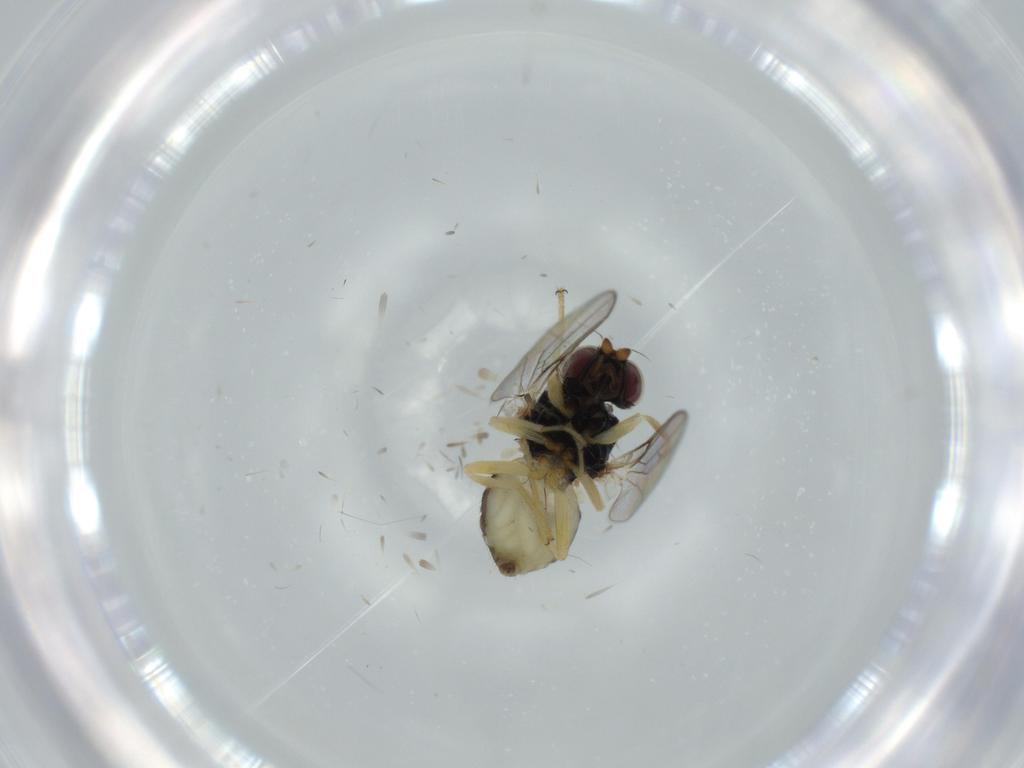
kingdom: Animalia
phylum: Arthropoda
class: Insecta
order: Diptera
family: Chloropidae
